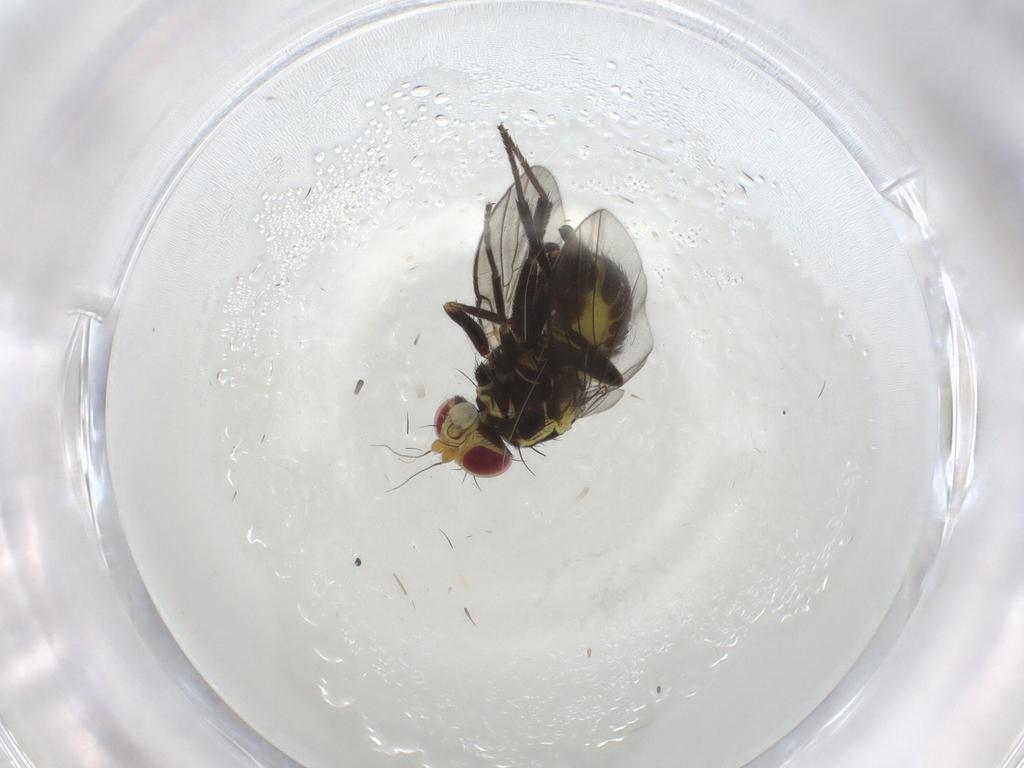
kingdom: Animalia
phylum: Arthropoda
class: Insecta
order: Diptera
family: Agromyzidae
